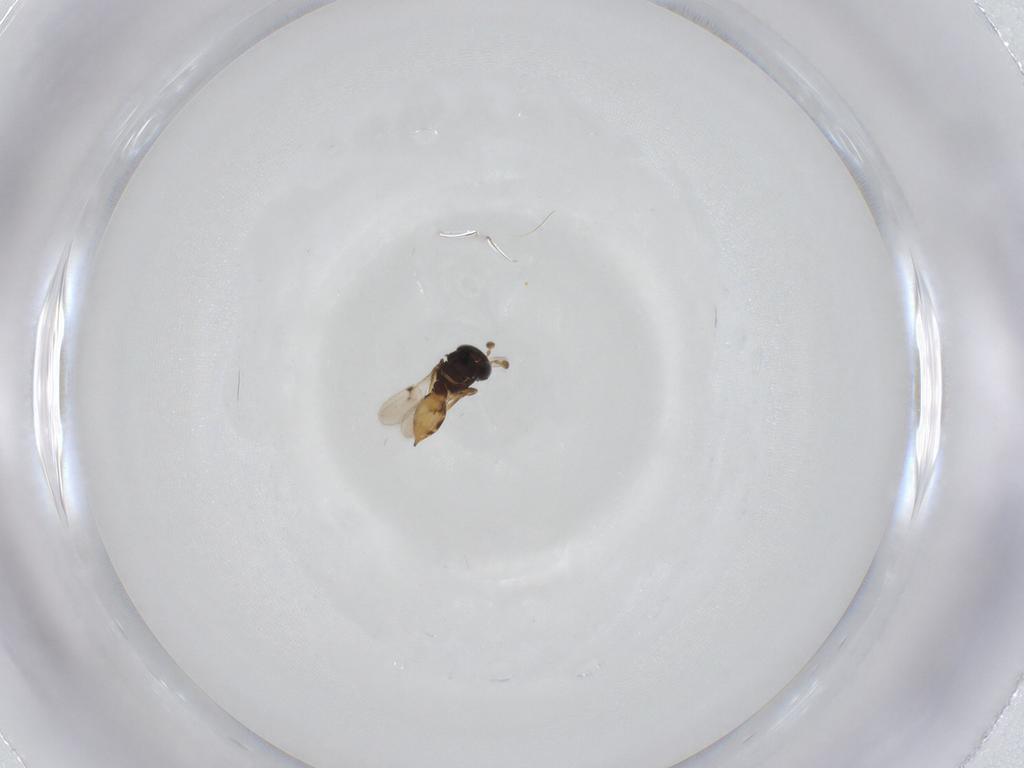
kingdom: Animalia
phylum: Arthropoda
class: Insecta
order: Hymenoptera
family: Scelionidae
